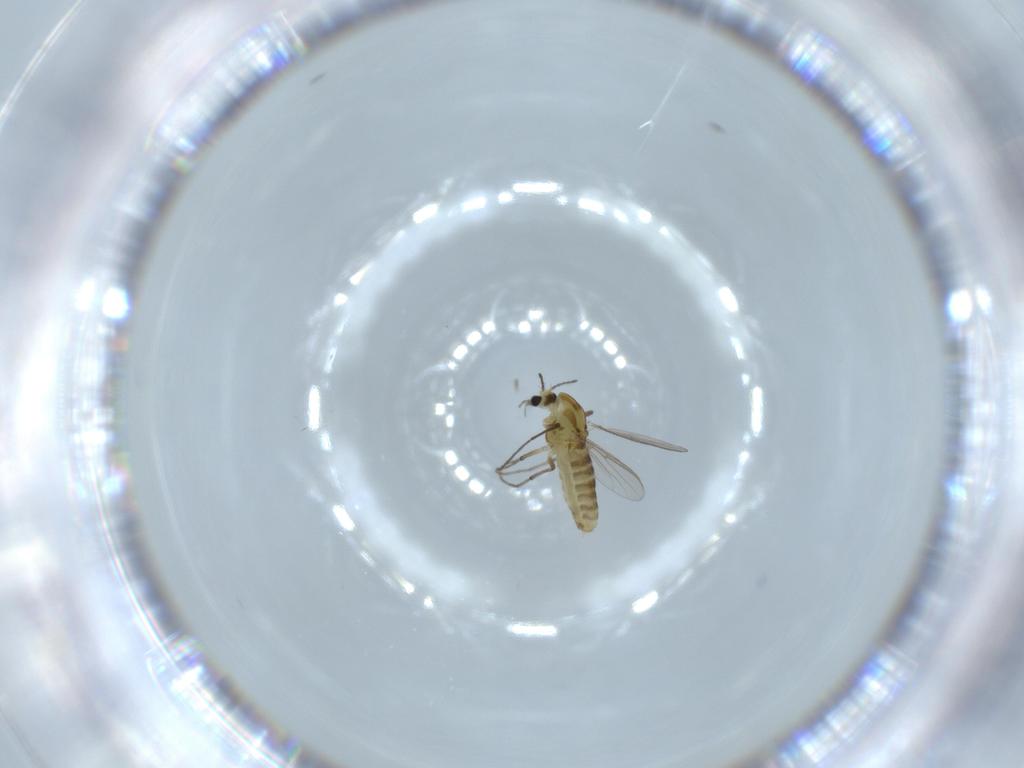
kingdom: Animalia
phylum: Arthropoda
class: Insecta
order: Diptera
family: Chironomidae
